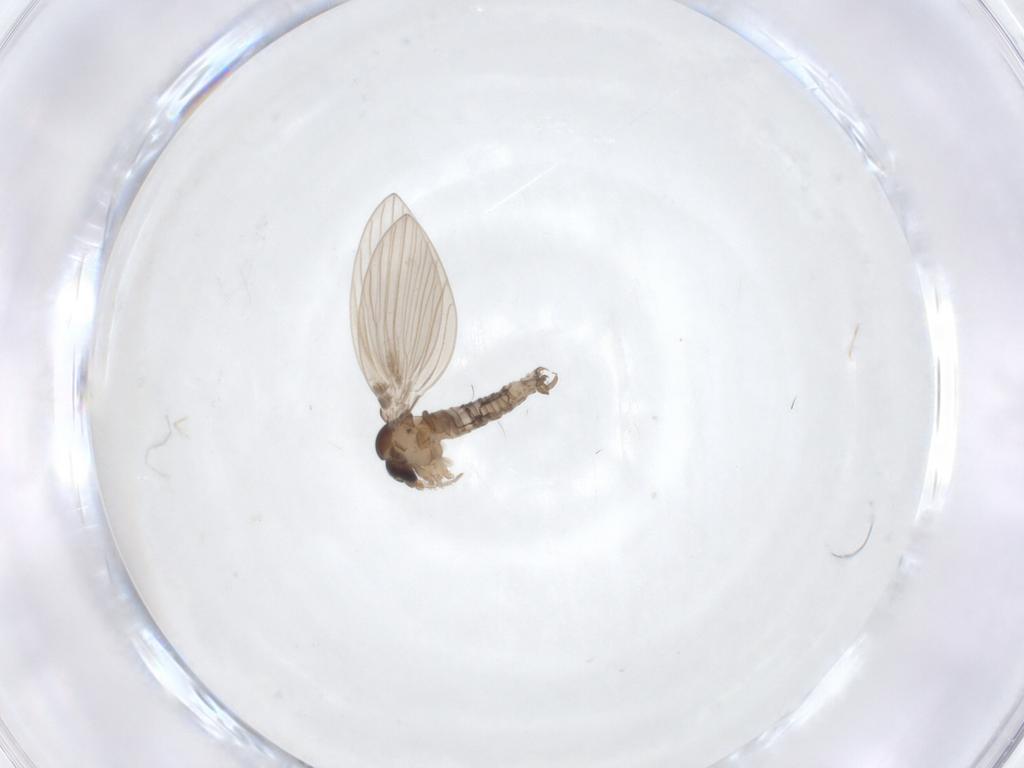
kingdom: Animalia
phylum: Arthropoda
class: Insecta
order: Diptera
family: Psychodidae
